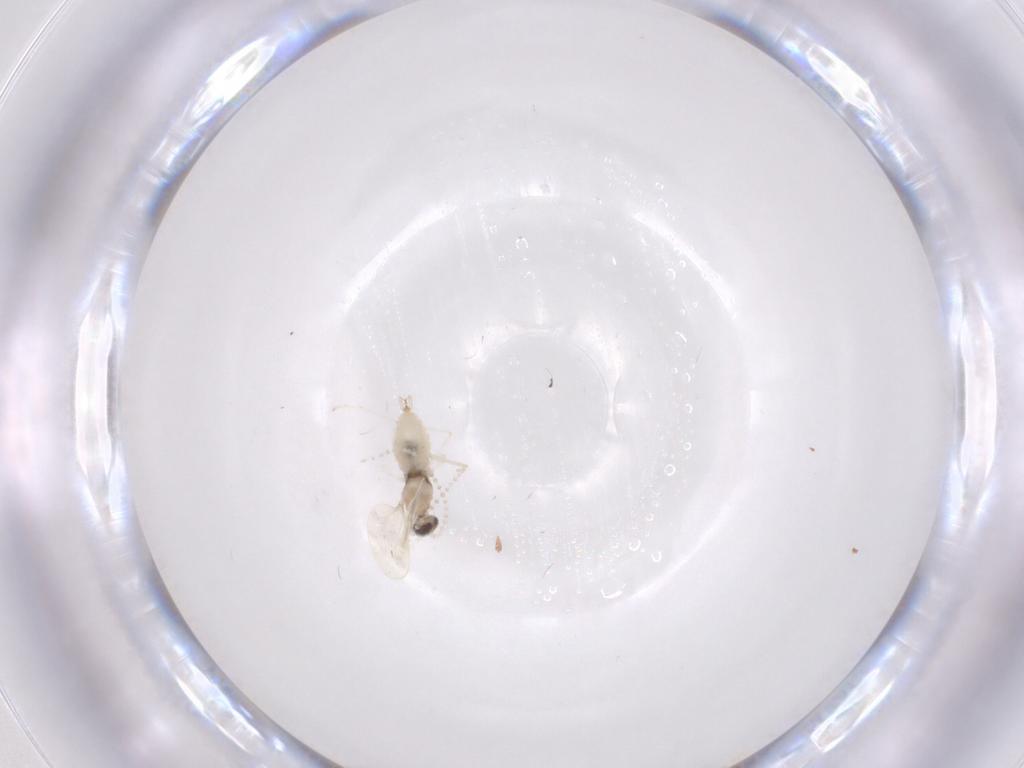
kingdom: Animalia
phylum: Arthropoda
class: Insecta
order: Diptera
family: Cecidomyiidae
